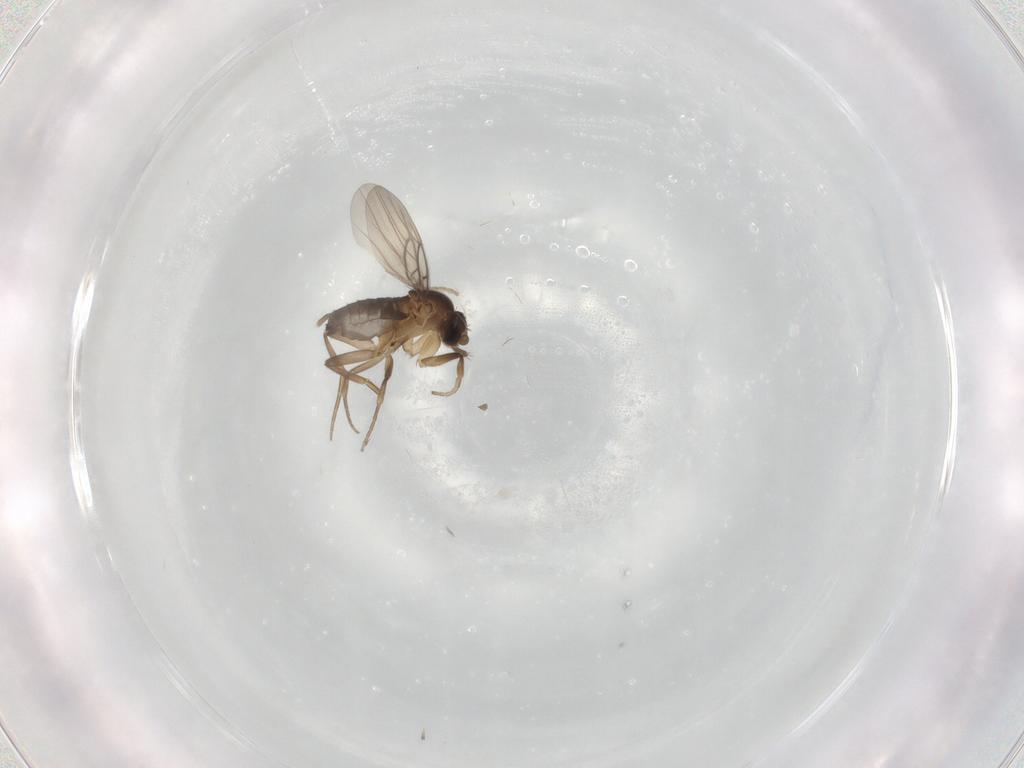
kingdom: Animalia
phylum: Arthropoda
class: Insecta
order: Diptera
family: Phoridae
